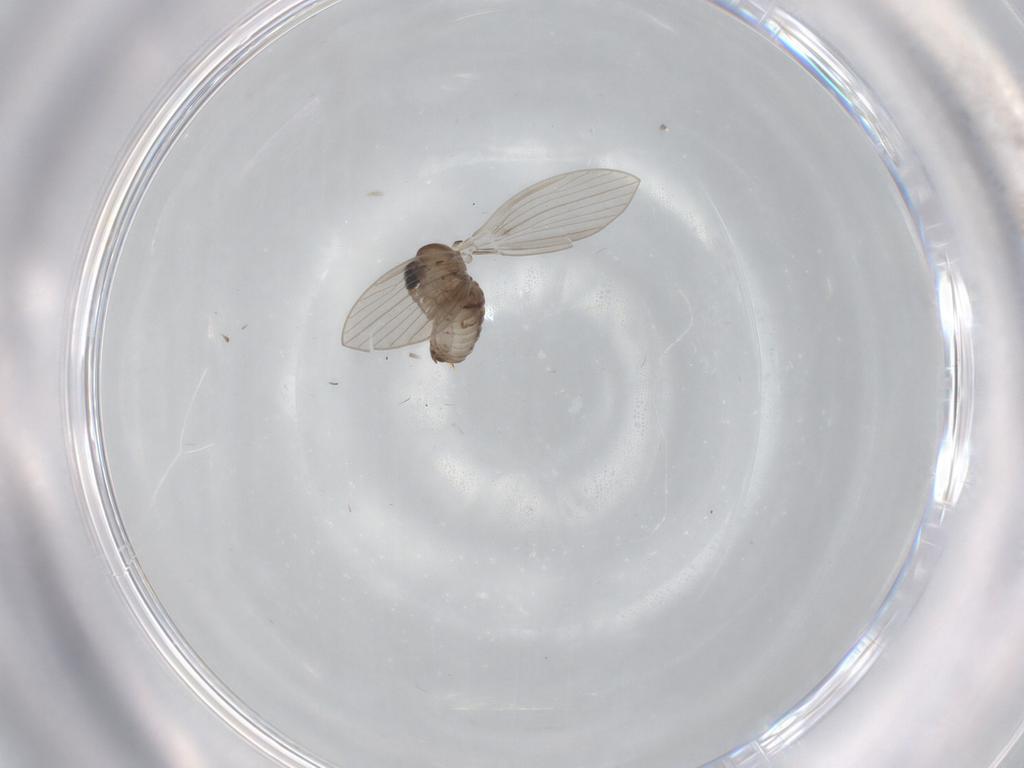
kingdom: Animalia
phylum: Arthropoda
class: Insecta
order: Diptera
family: Psychodidae
